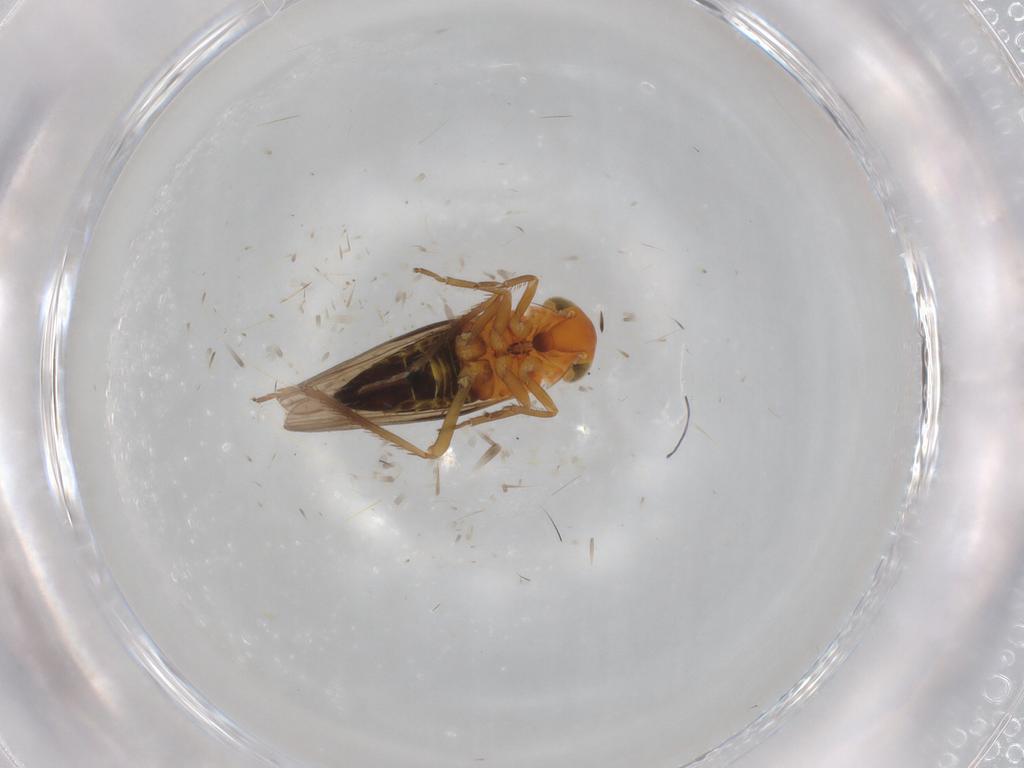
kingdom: Animalia
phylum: Arthropoda
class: Insecta
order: Hemiptera
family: Cicadellidae
